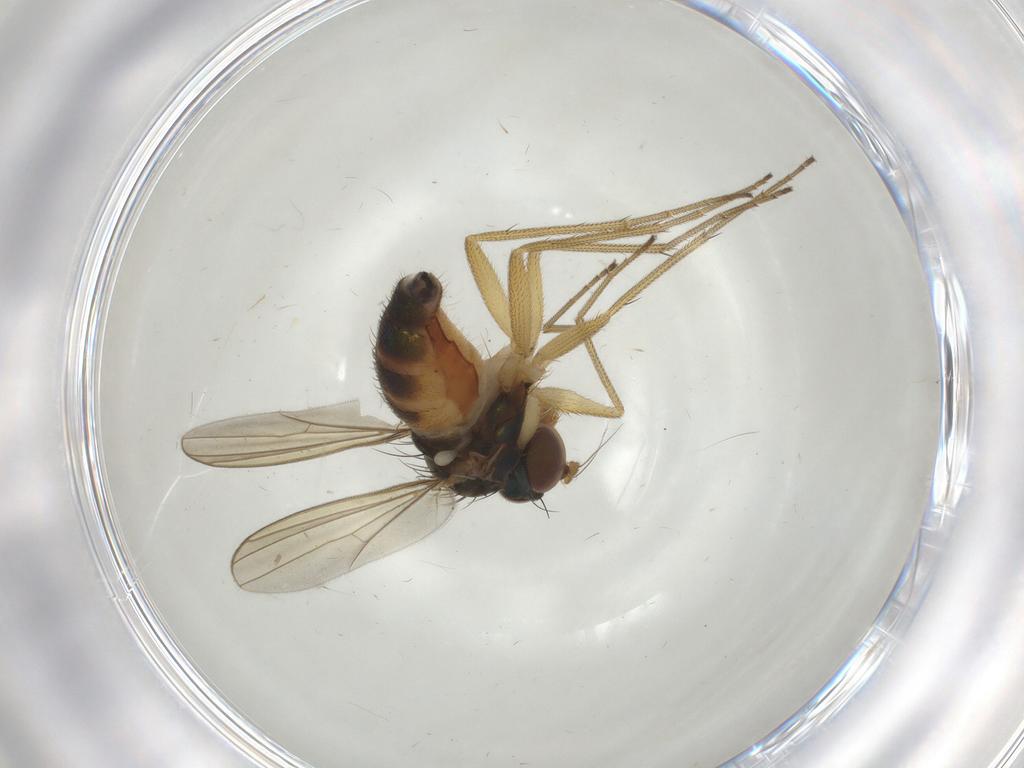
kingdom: Animalia
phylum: Arthropoda
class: Insecta
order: Diptera
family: Dolichopodidae
